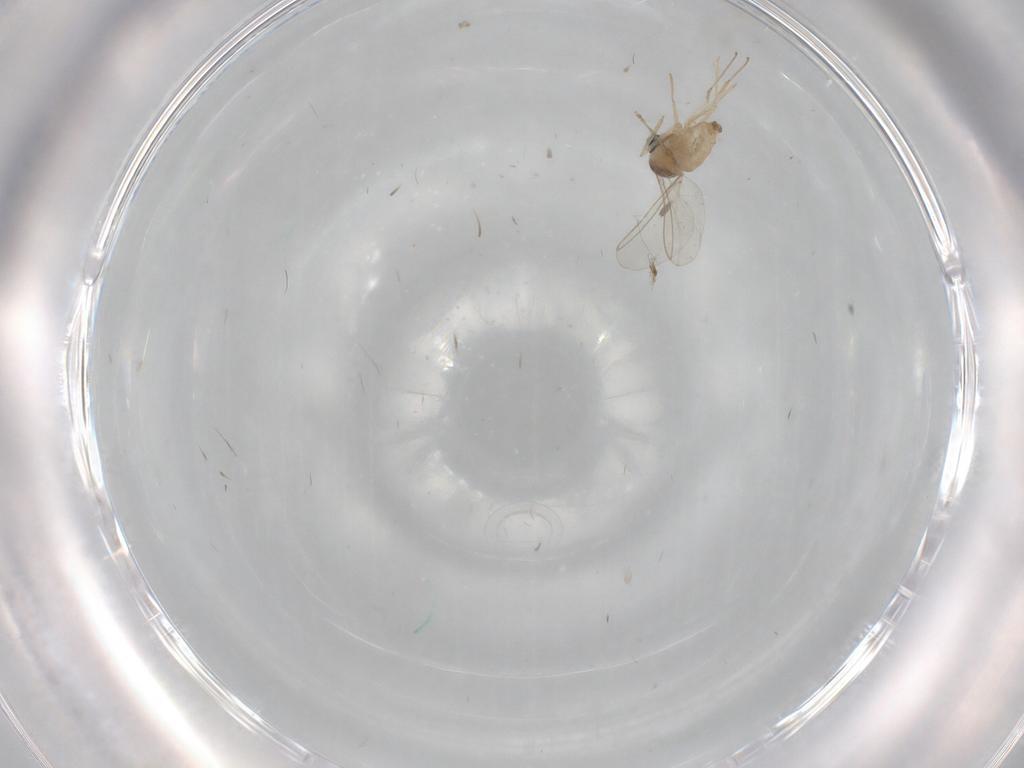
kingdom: Animalia
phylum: Arthropoda
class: Insecta
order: Diptera
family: Cecidomyiidae
